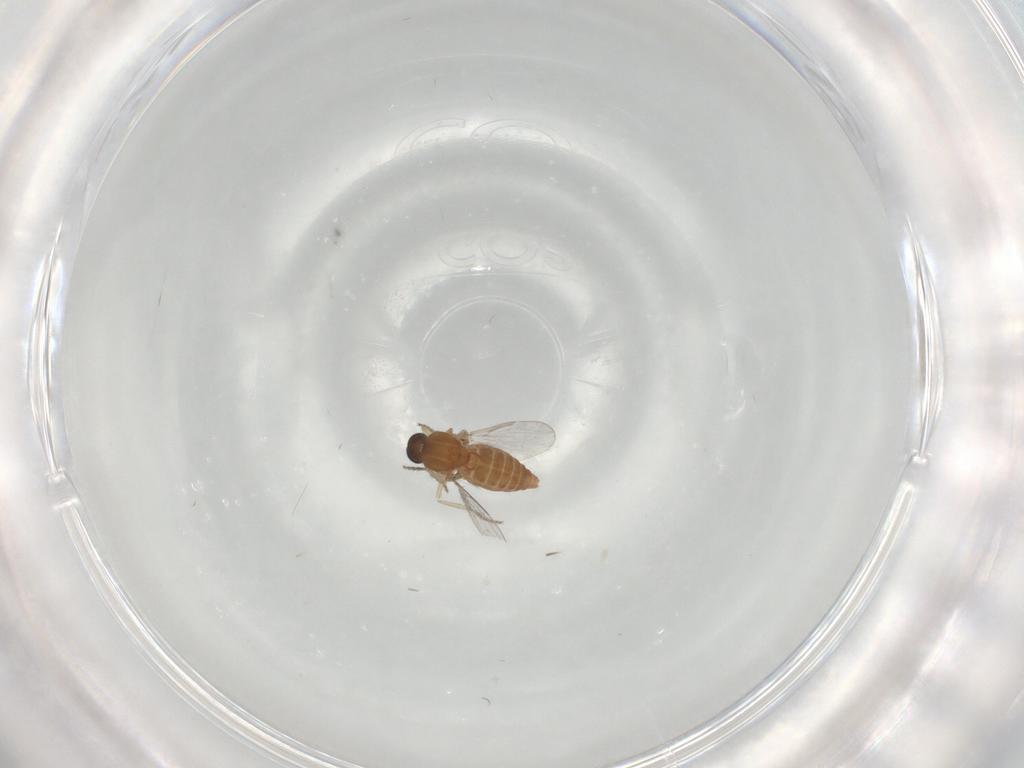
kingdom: Animalia
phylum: Arthropoda
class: Insecta
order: Diptera
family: Ceratopogonidae
